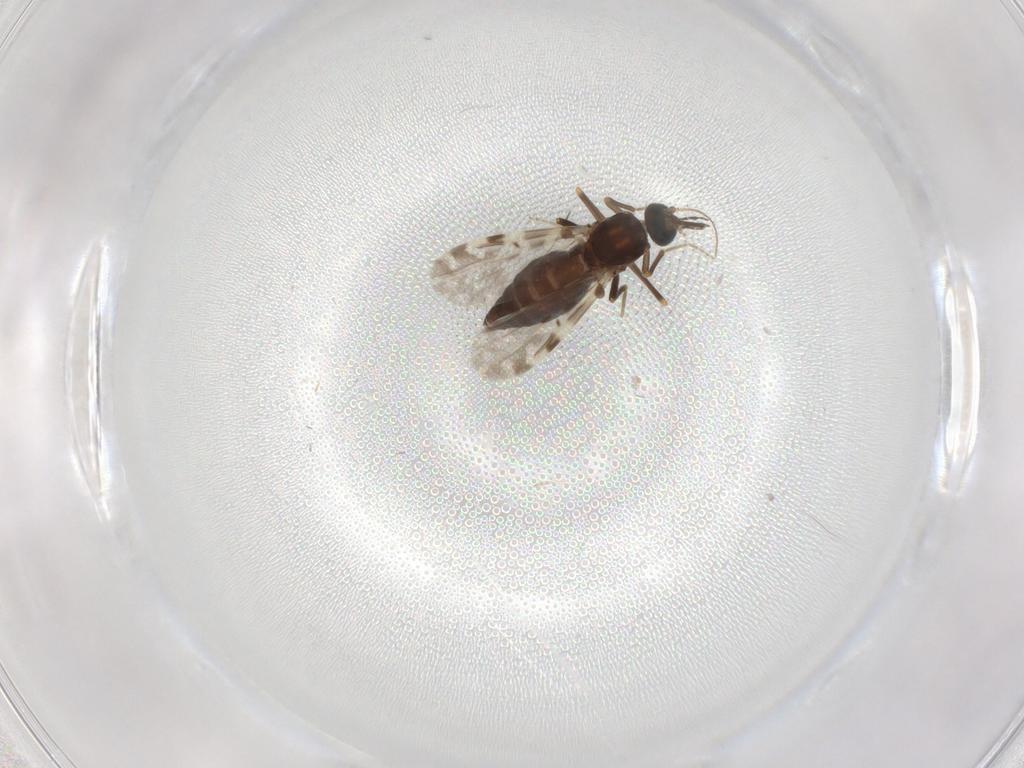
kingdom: Animalia
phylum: Arthropoda
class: Insecta
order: Diptera
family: Ceratopogonidae
